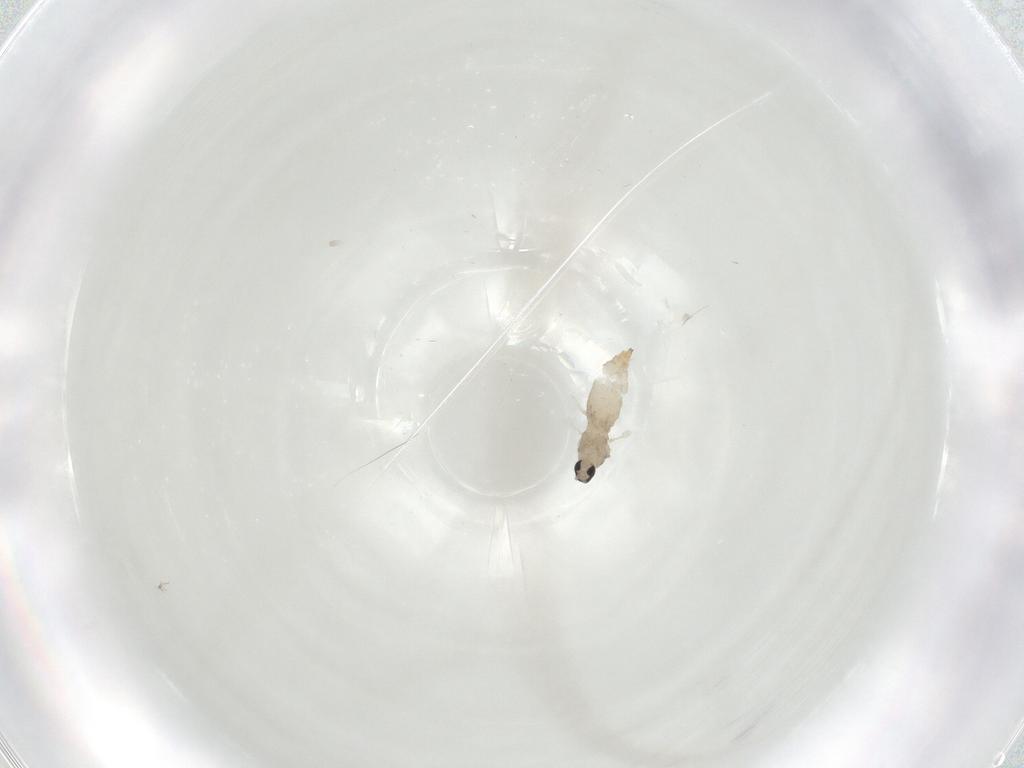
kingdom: Animalia
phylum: Arthropoda
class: Insecta
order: Diptera
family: Cecidomyiidae
